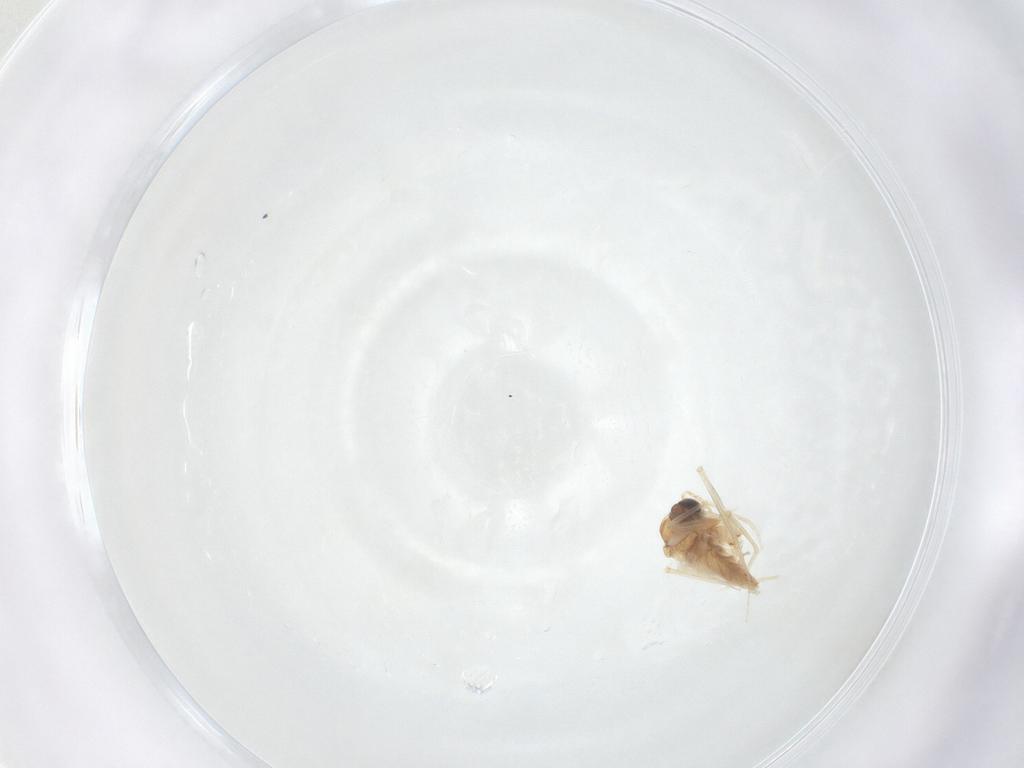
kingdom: Animalia
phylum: Arthropoda
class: Insecta
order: Diptera
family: Sciaridae
